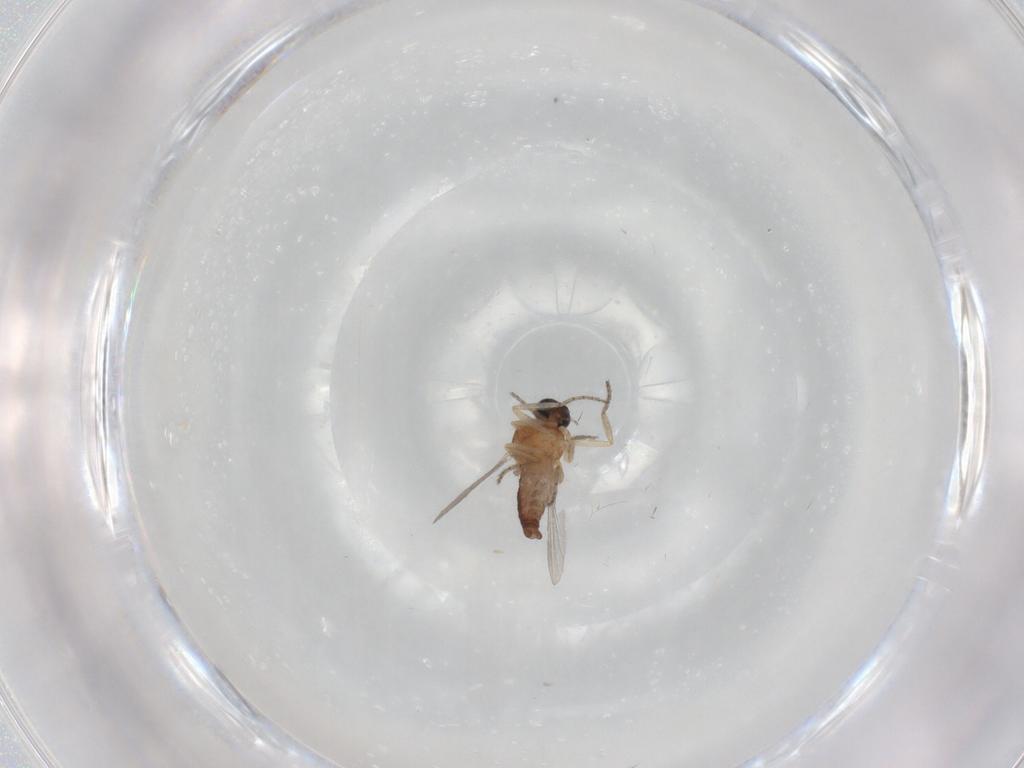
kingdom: Animalia
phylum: Arthropoda
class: Insecta
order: Diptera
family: Ceratopogonidae
